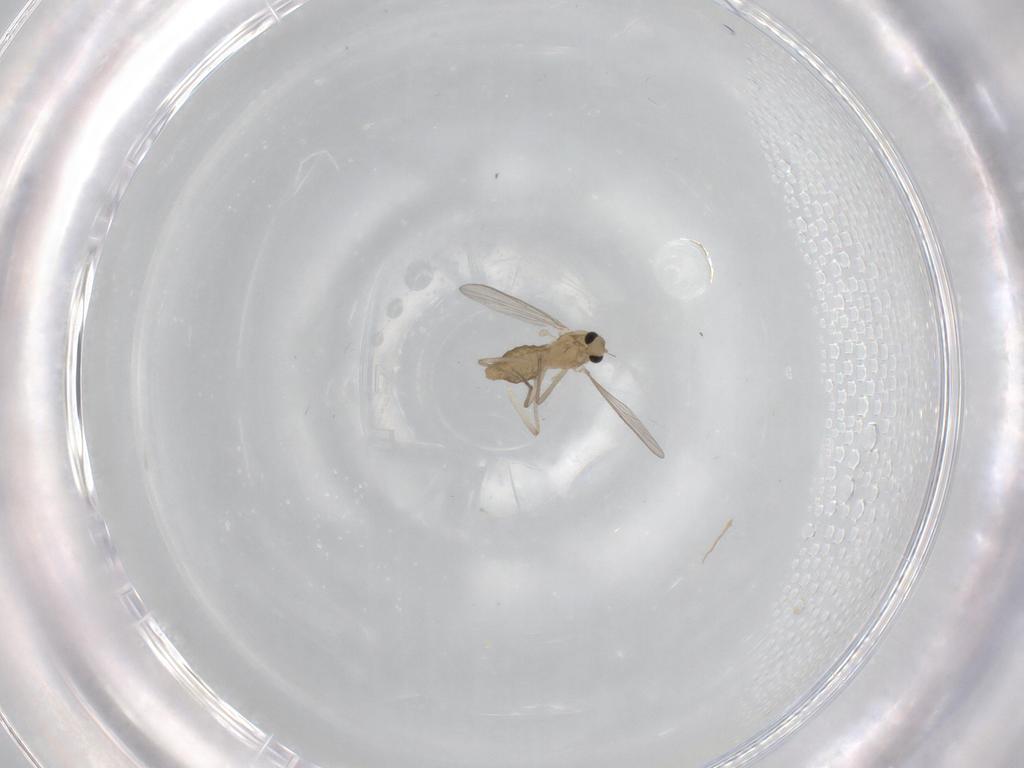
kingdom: Animalia
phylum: Arthropoda
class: Insecta
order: Diptera
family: Chironomidae
